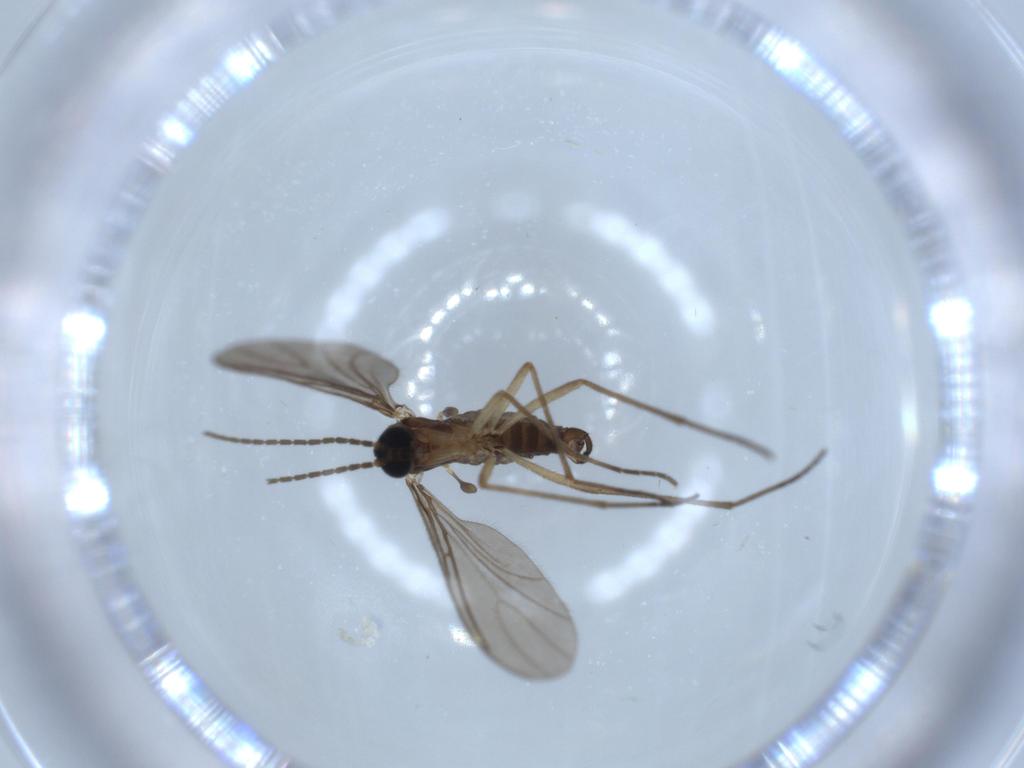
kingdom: Animalia
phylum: Arthropoda
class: Insecta
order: Diptera
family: Sciaridae
